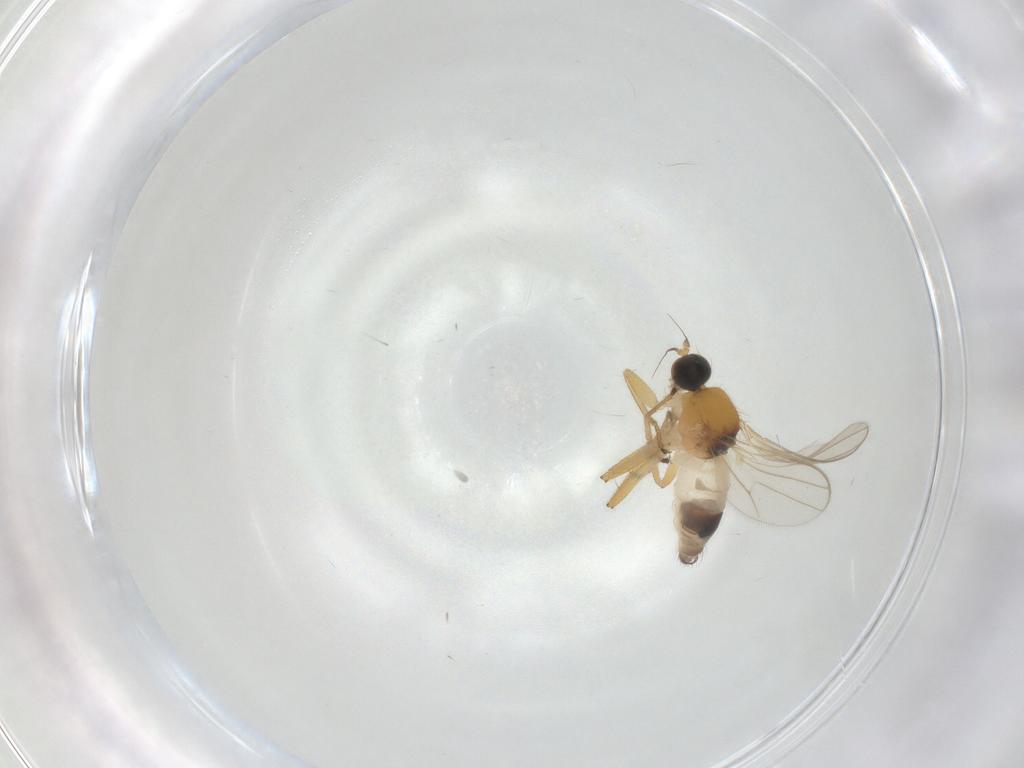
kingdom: Animalia
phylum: Arthropoda
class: Insecta
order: Diptera
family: Hybotidae
